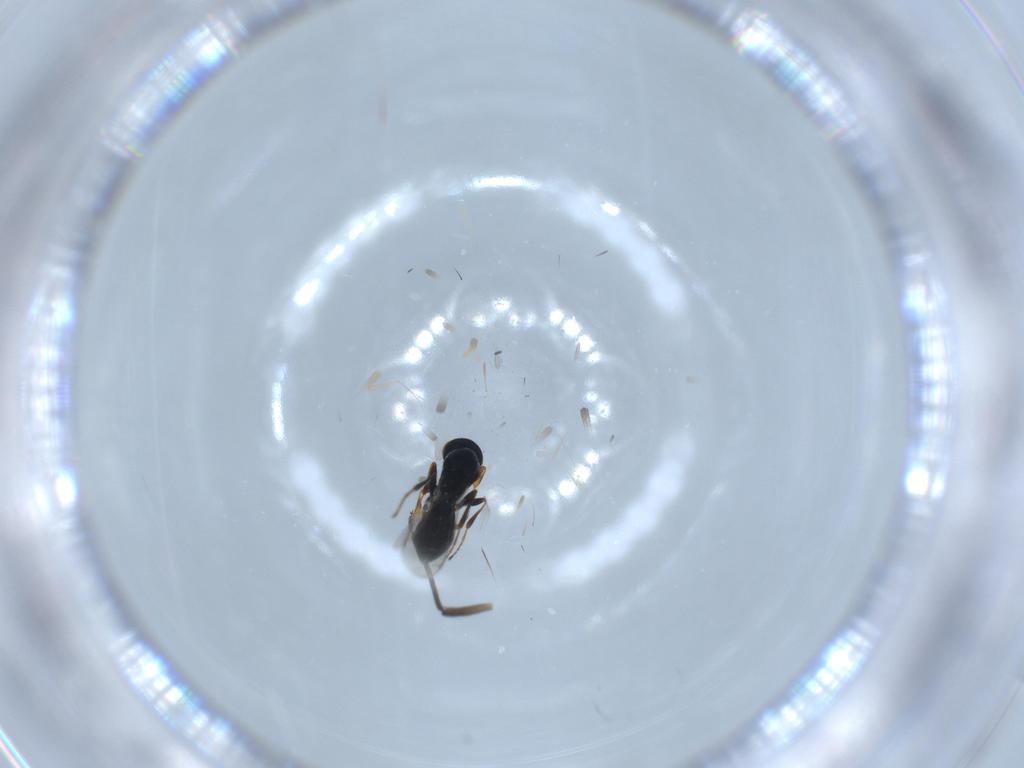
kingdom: Animalia
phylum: Arthropoda
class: Insecta
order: Hymenoptera
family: Platygastridae
